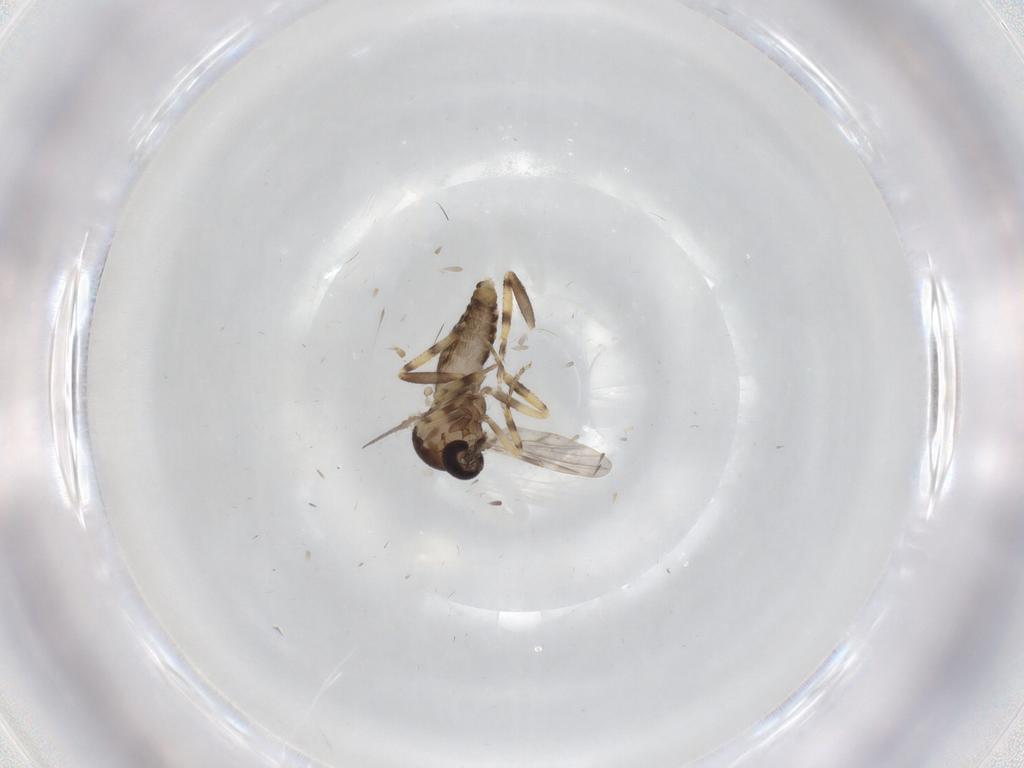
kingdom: Animalia
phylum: Arthropoda
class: Insecta
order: Diptera
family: Ceratopogonidae
